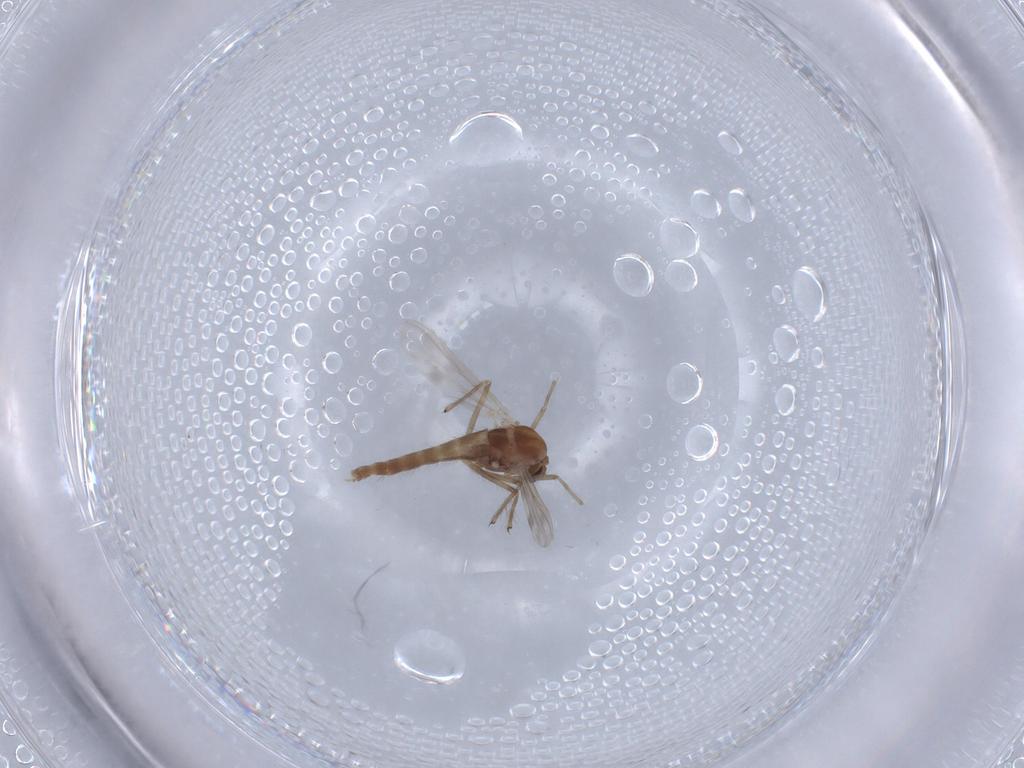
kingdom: Animalia
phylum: Arthropoda
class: Insecta
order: Diptera
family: Chironomidae
